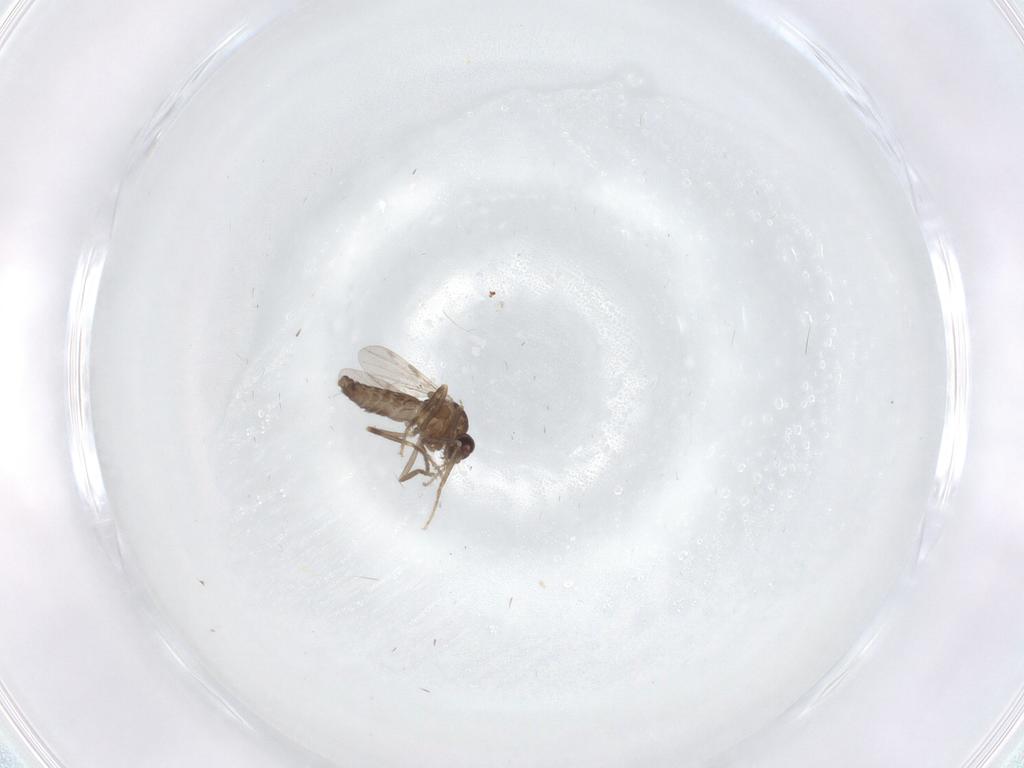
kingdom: Animalia
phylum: Arthropoda
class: Insecta
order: Diptera
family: Ceratopogonidae
